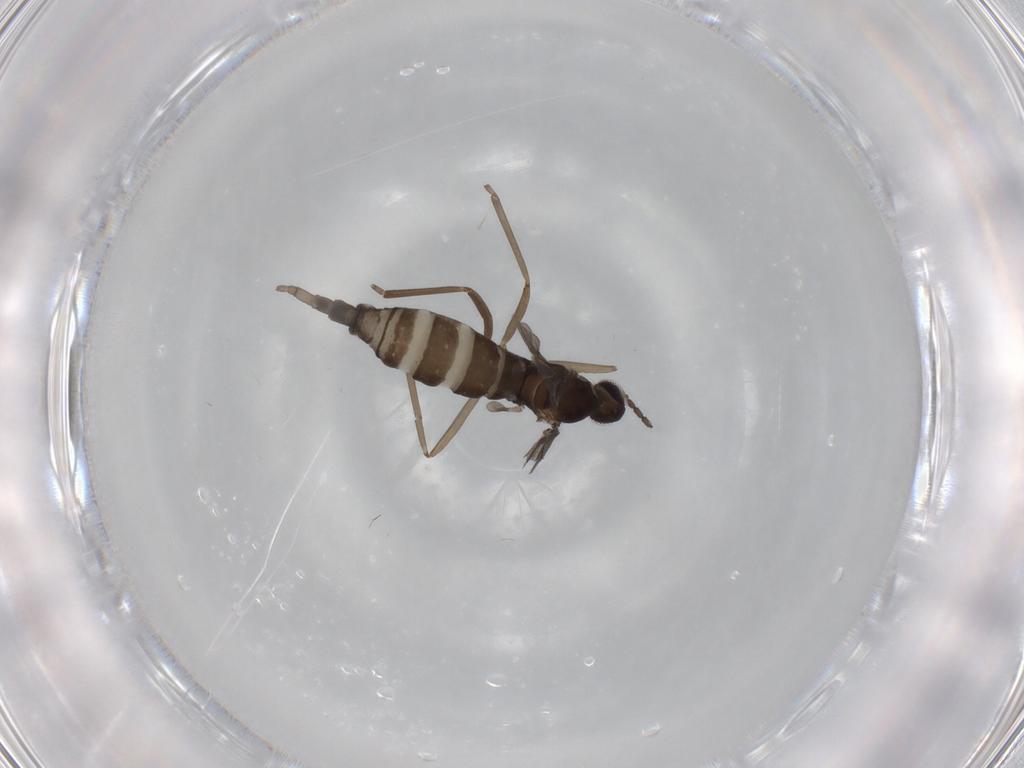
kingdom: Animalia
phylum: Arthropoda
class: Insecta
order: Diptera
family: Cecidomyiidae
